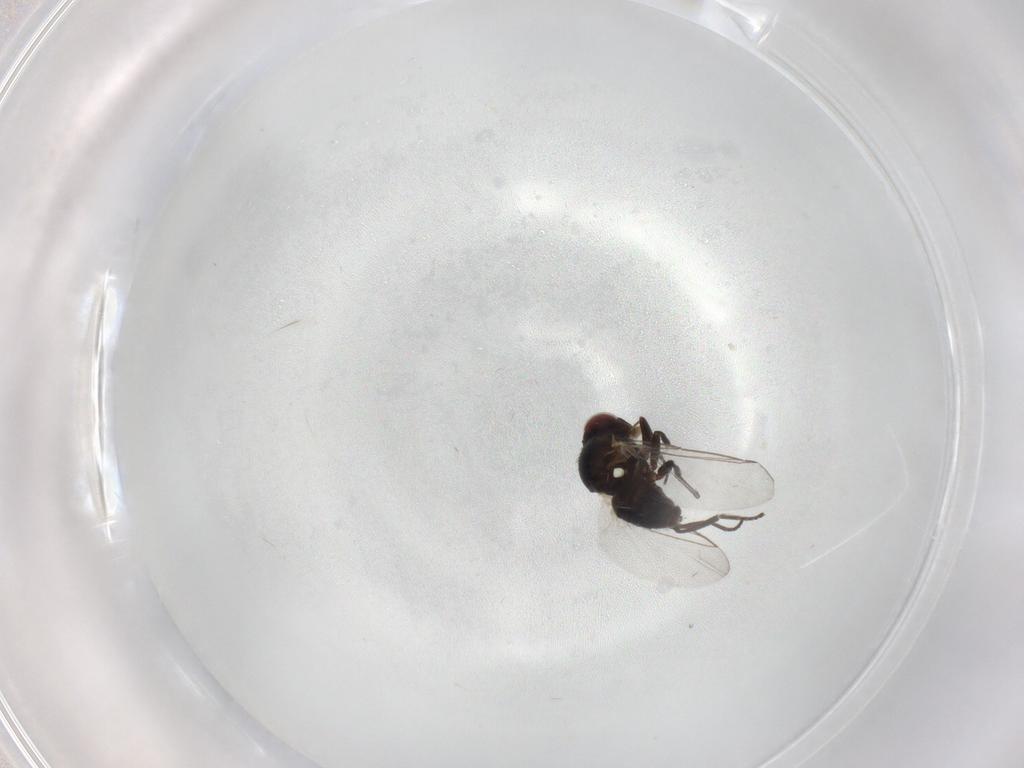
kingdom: Animalia
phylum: Arthropoda
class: Insecta
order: Diptera
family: Agromyzidae
